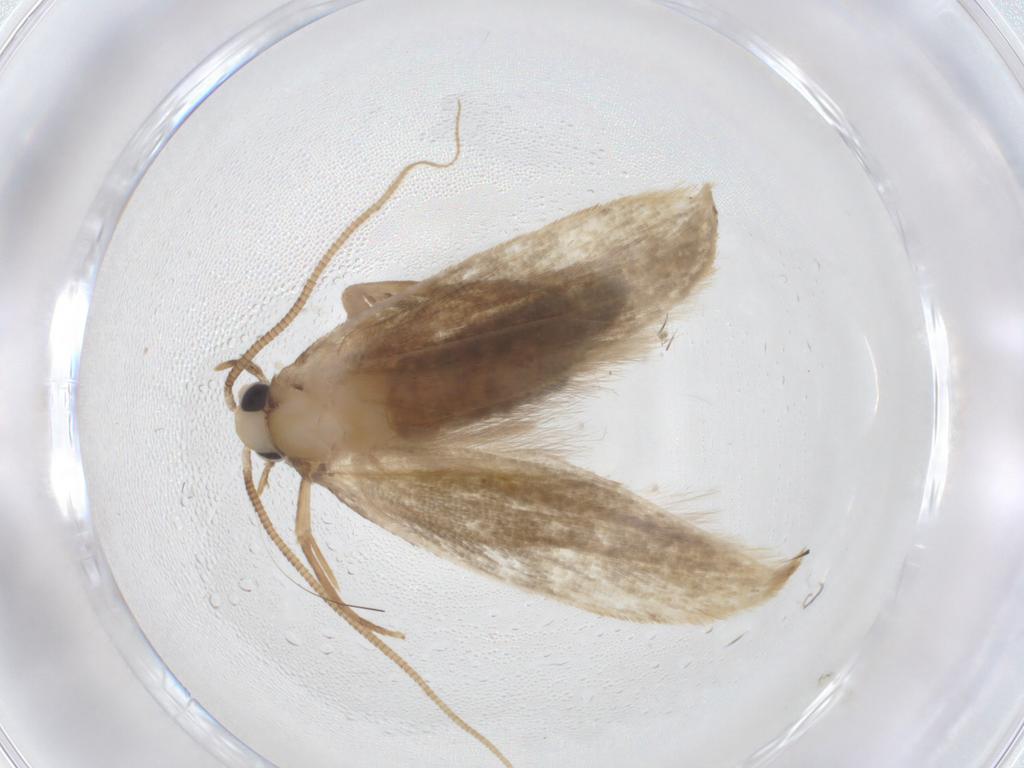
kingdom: Animalia
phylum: Arthropoda
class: Insecta
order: Lepidoptera
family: Tineidae
